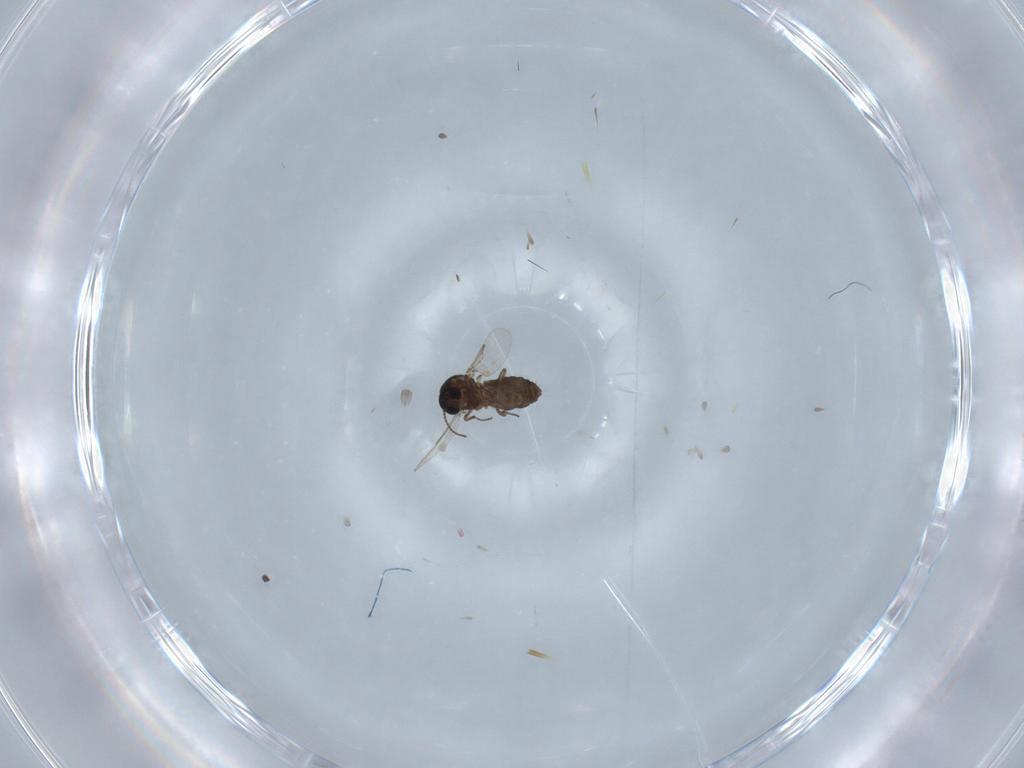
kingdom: Animalia
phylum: Arthropoda
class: Insecta
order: Diptera
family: Ceratopogonidae
